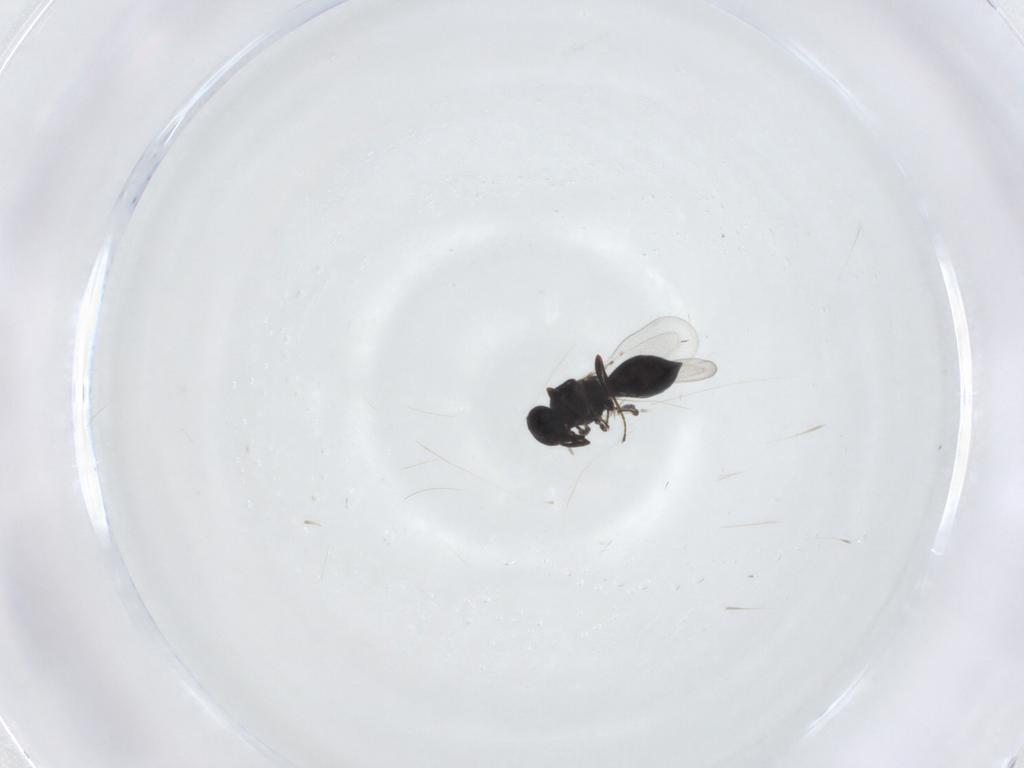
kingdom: Animalia
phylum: Arthropoda
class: Insecta
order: Hymenoptera
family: Platygastridae
